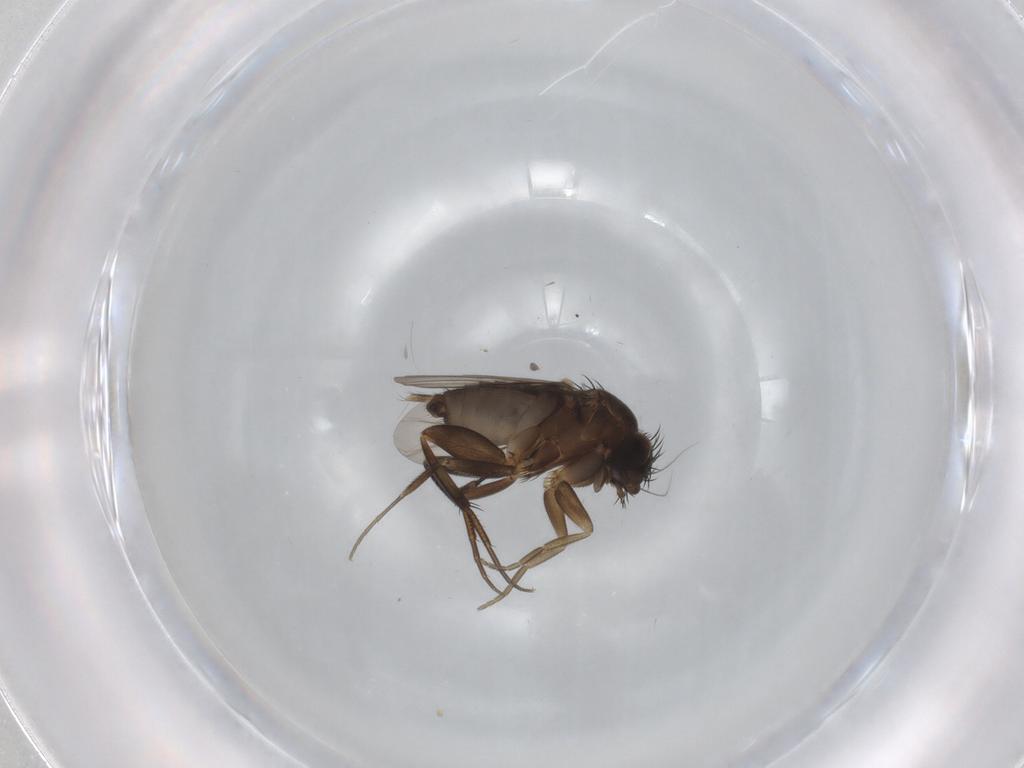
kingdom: Animalia
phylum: Arthropoda
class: Insecta
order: Diptera
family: Phoridae
